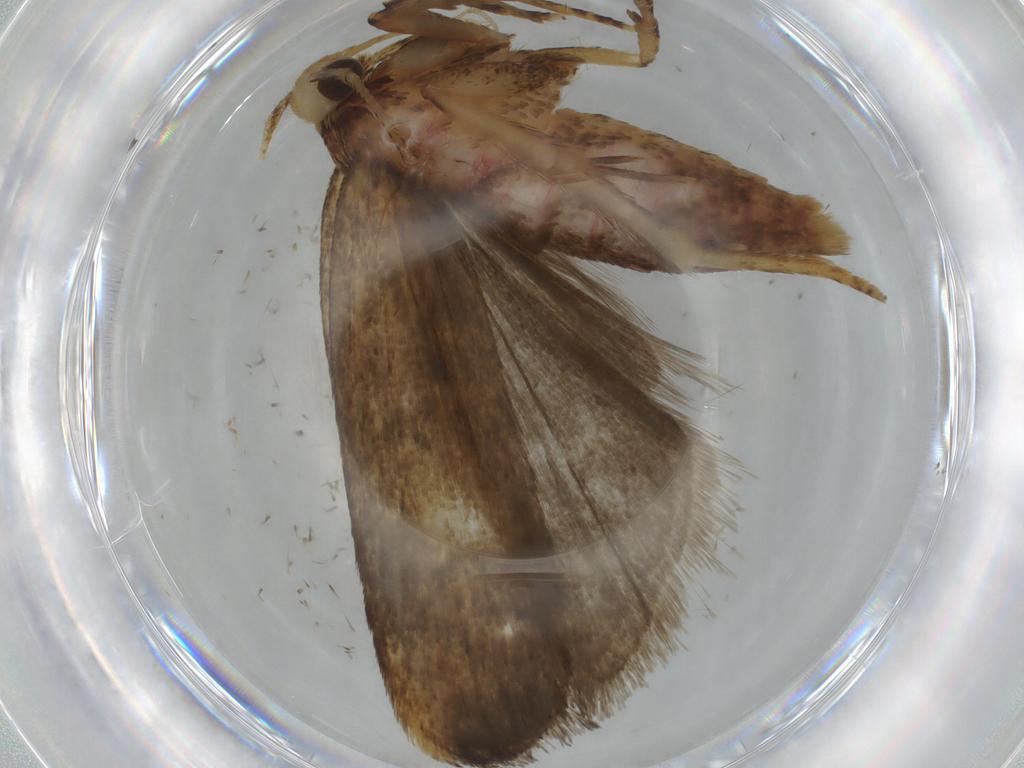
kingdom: Animalia
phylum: Arthropoda
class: Insecta
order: Lepidoptera
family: Autostichidae
